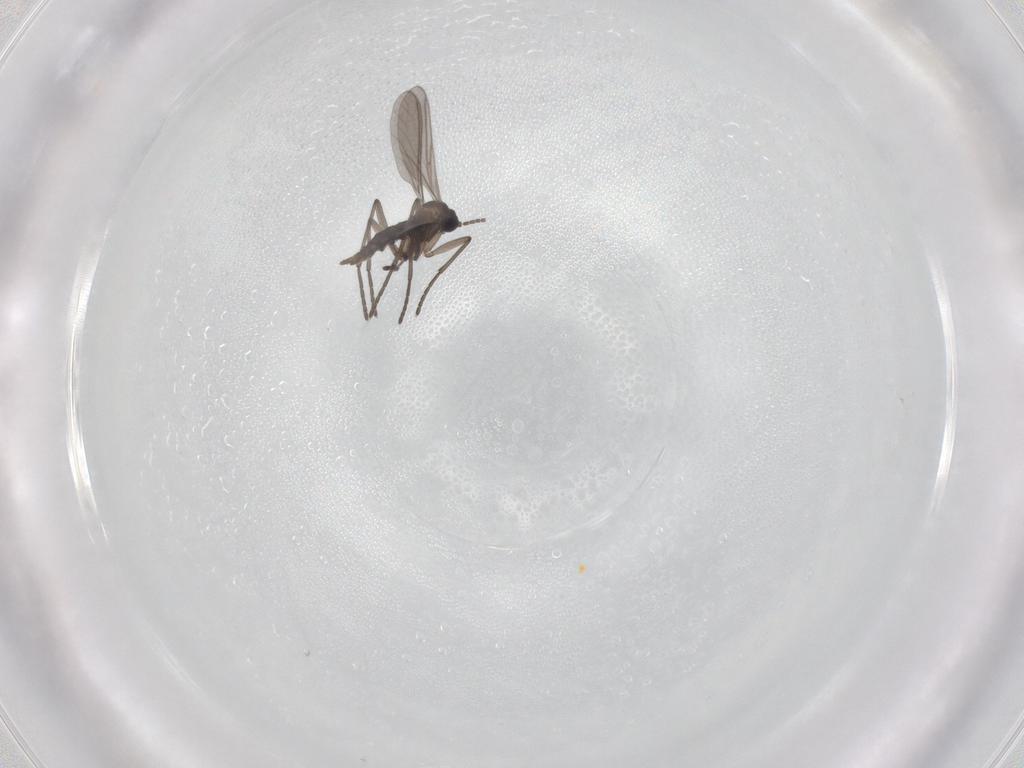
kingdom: Animalia
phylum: Arthropoda
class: Insecta
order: Diptera
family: Sciaridae
